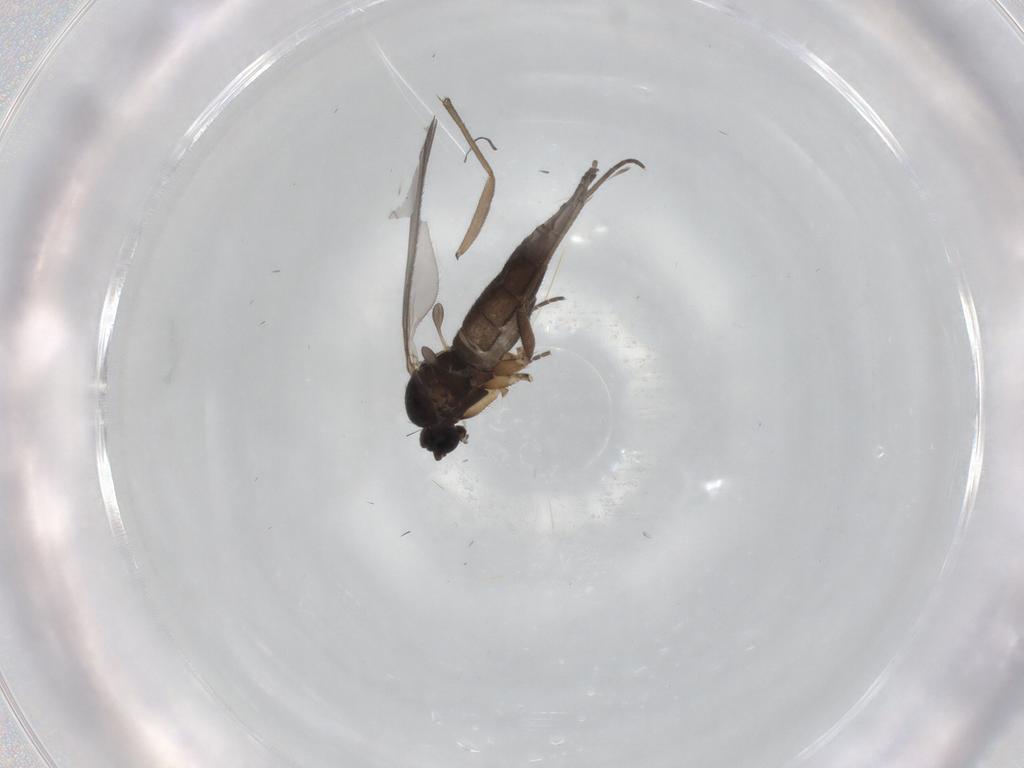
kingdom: Animalia
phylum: Arthropoda
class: Insecta
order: Diptera
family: Sciaridae
